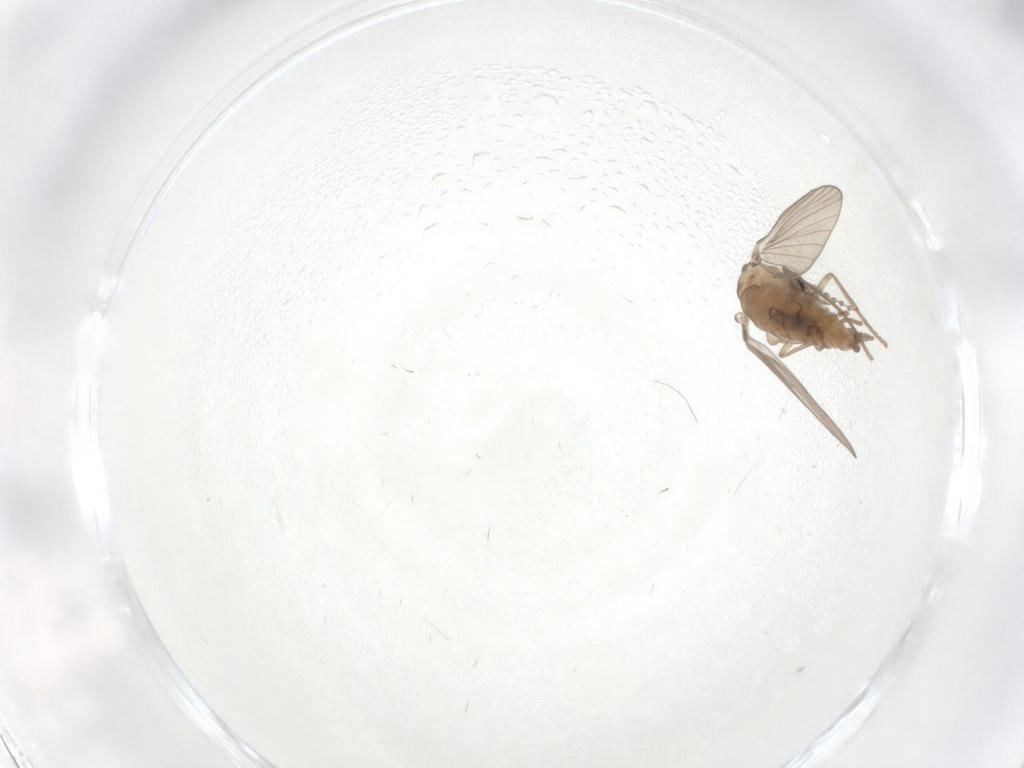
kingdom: Animalia
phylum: Arthropoda
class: Insecta
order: Diptera
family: Psychodidae
